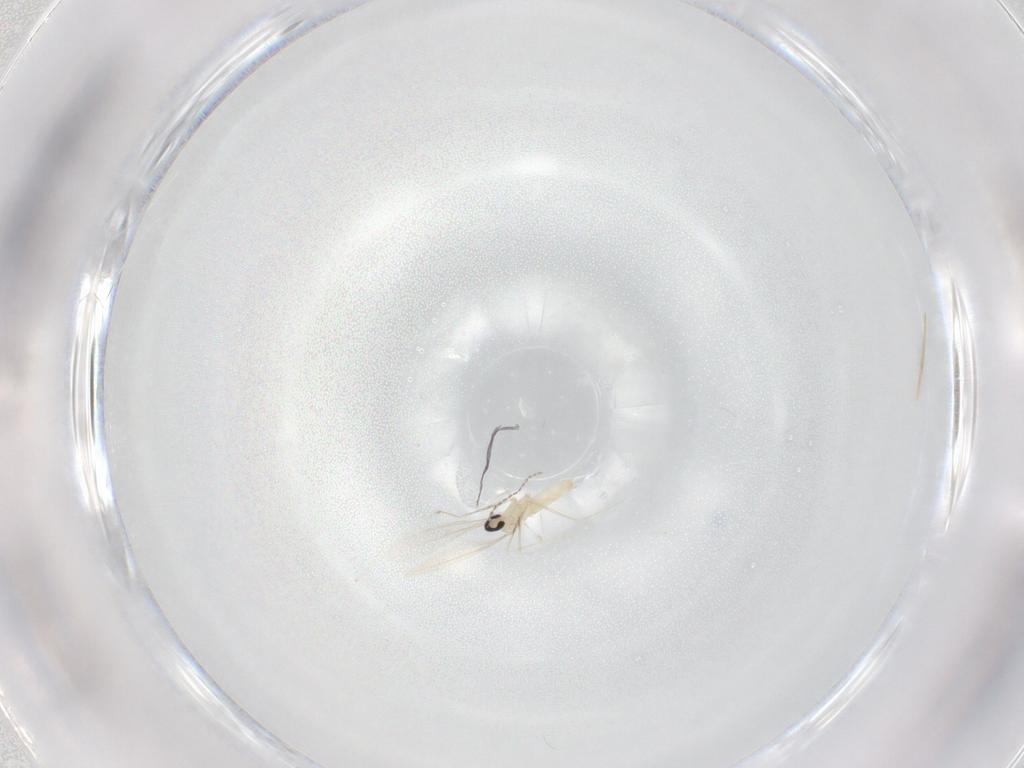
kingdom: Animalia
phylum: Arthropoda
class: Insecta
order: Diptera
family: Cecidomyiidae
